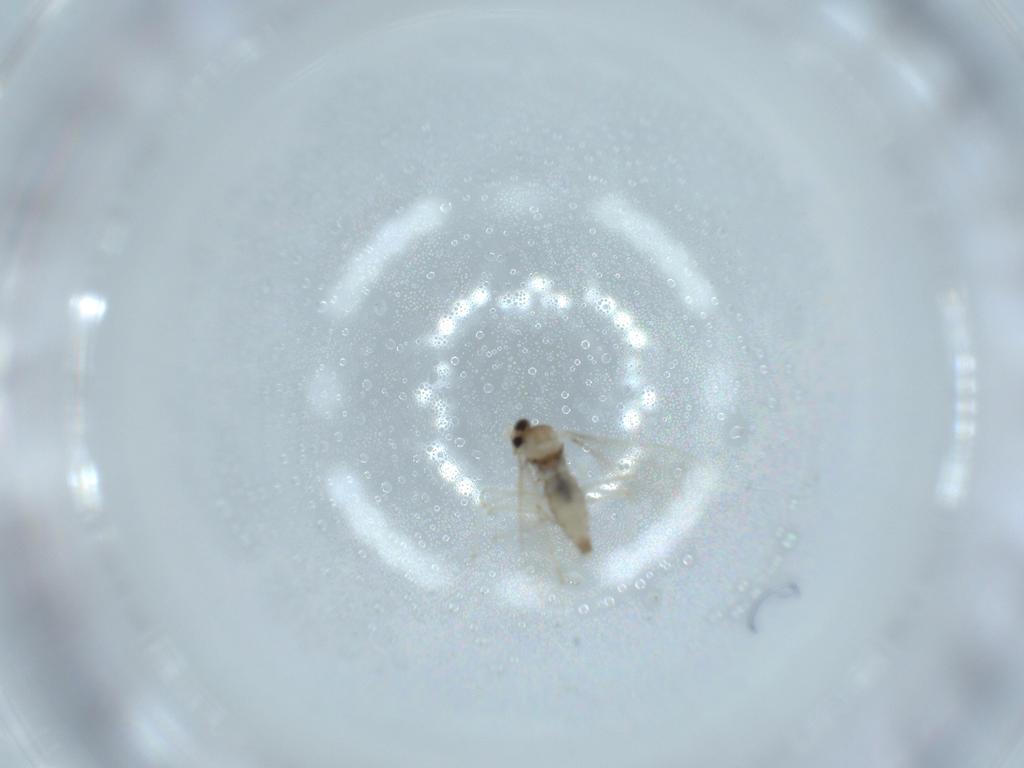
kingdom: Animalia
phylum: Arthropoda
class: Insecta
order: Diptera
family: Cecidomyiidae
